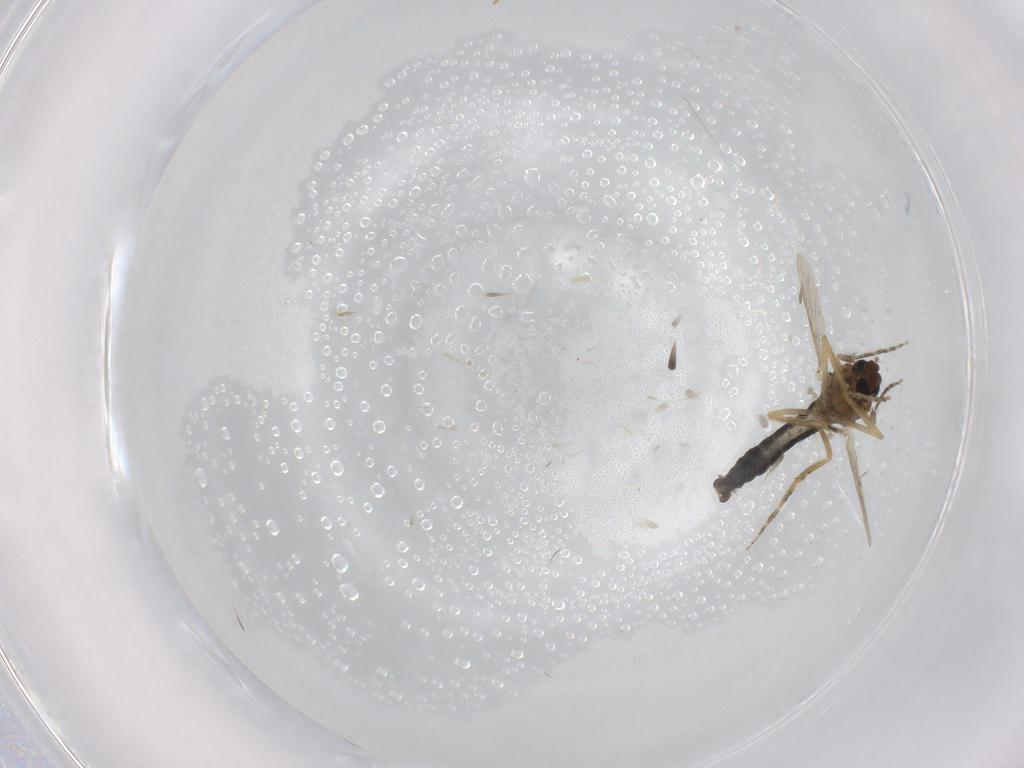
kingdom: Animalia
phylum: Arthropoda
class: Insecta
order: Diptera
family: Ceratopogonidae
